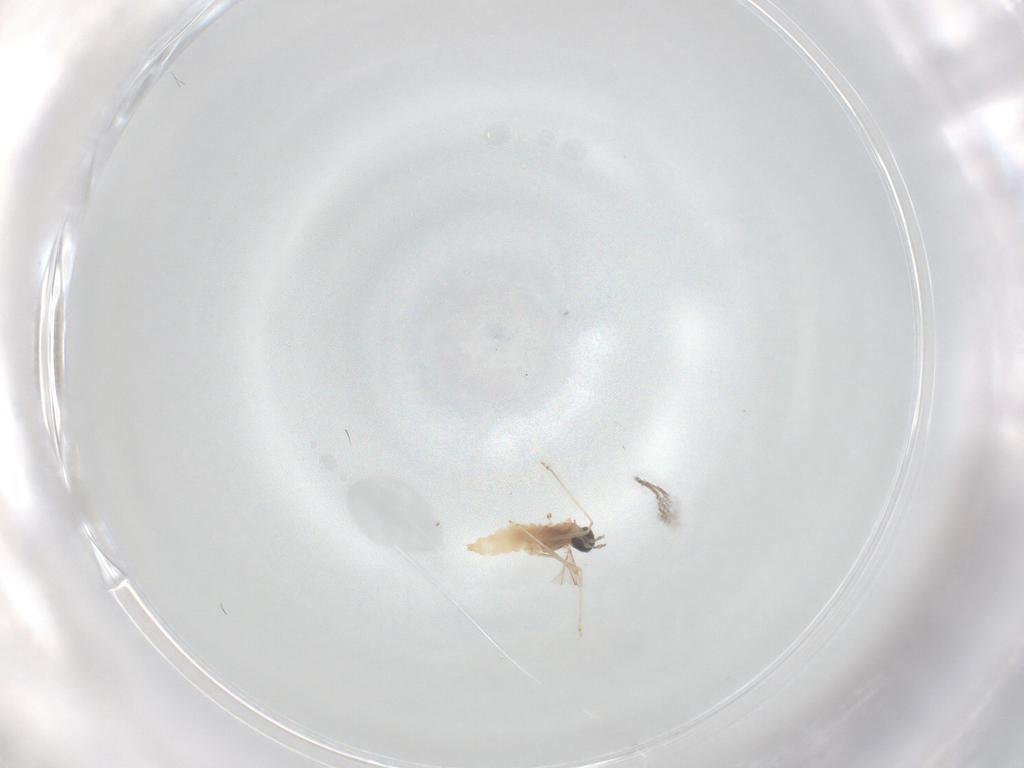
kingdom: Animalia
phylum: Arthropoda
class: Insecta
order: Diptera
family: Cecidomyiidae
